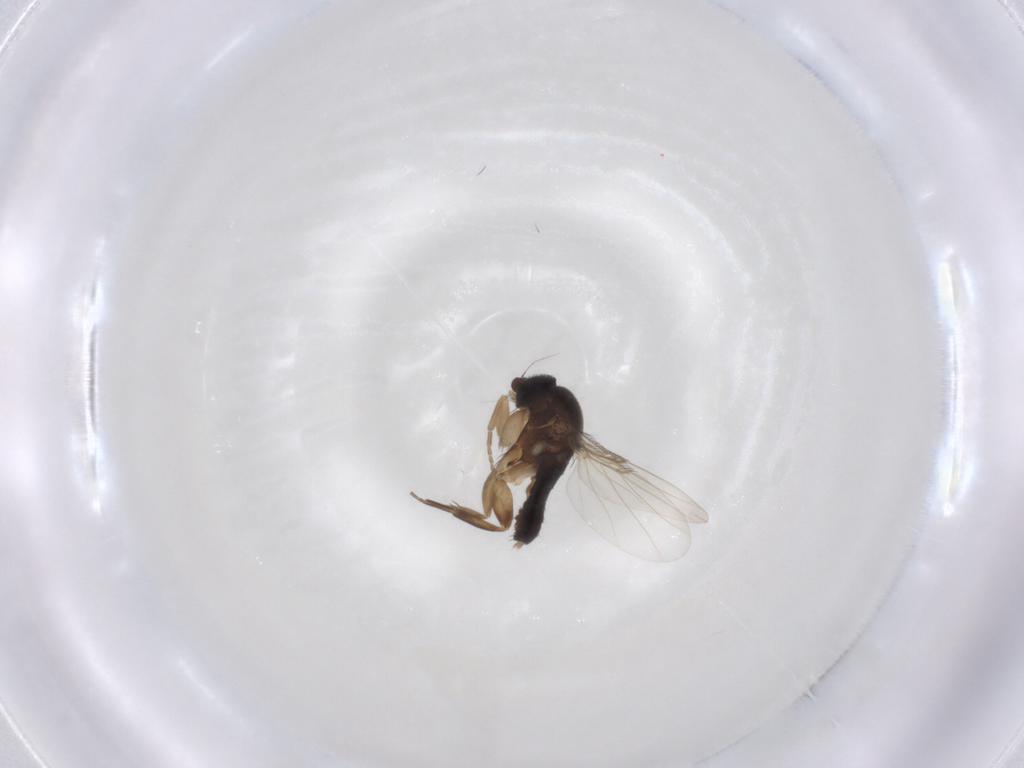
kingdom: Animalia
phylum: Arthropoda
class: Insecta
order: Diptera
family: Phoridae
